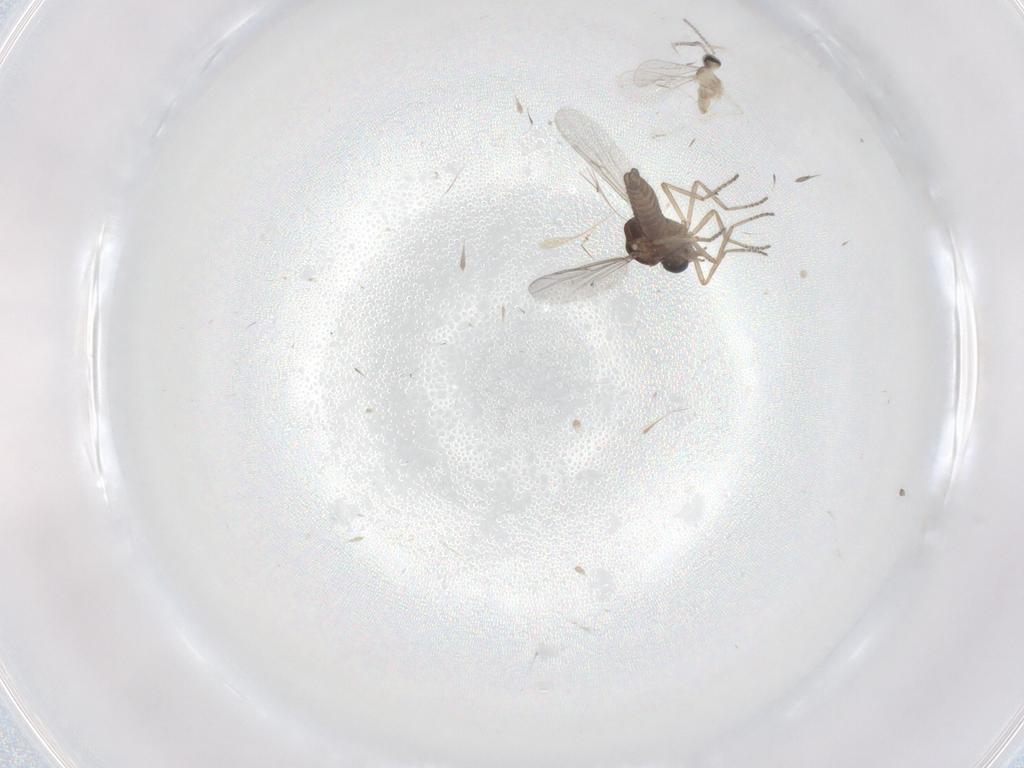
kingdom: Animalia
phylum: Arthropoda
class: Insecta
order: Diptera
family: Ceratopogonidae
